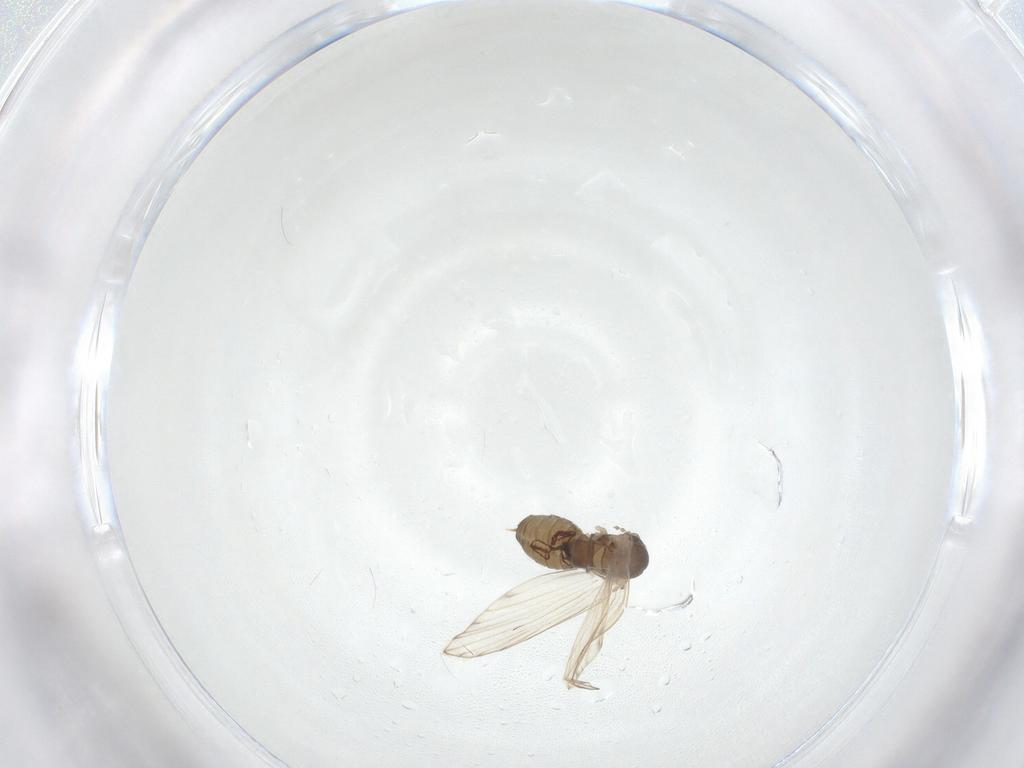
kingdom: Animalia
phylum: Arthropoda
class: Insecta
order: Diptera
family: Psychodidae
